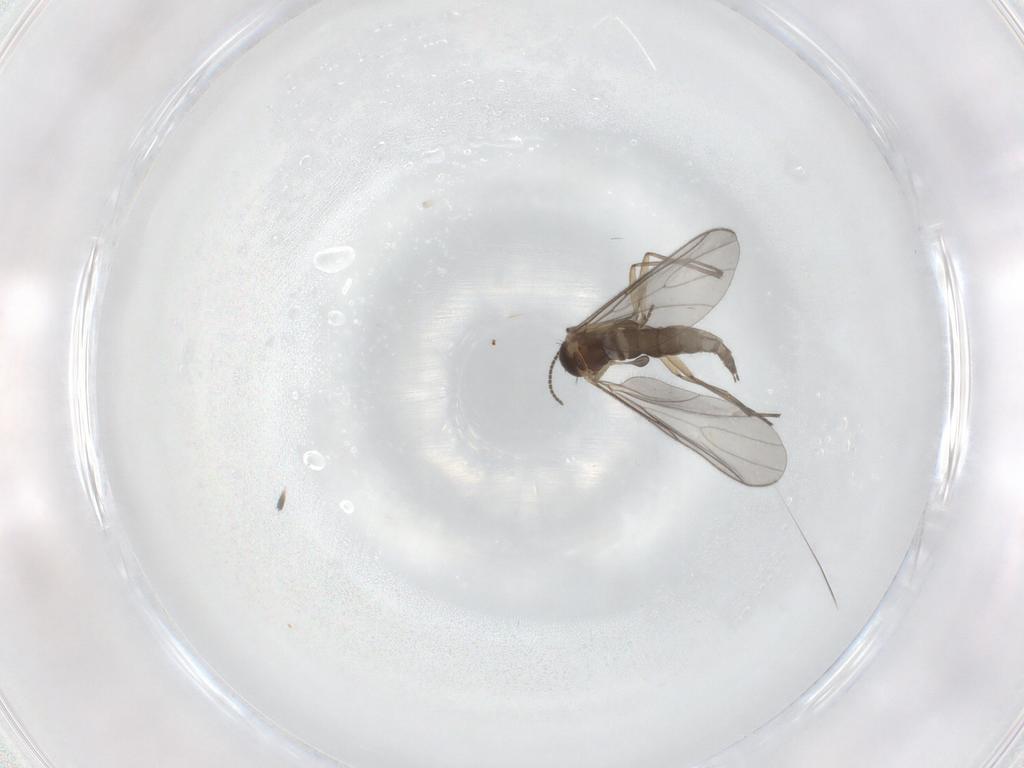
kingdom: Animalia
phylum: Arthropoda
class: Insecta
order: Diptera
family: Sciaridae
